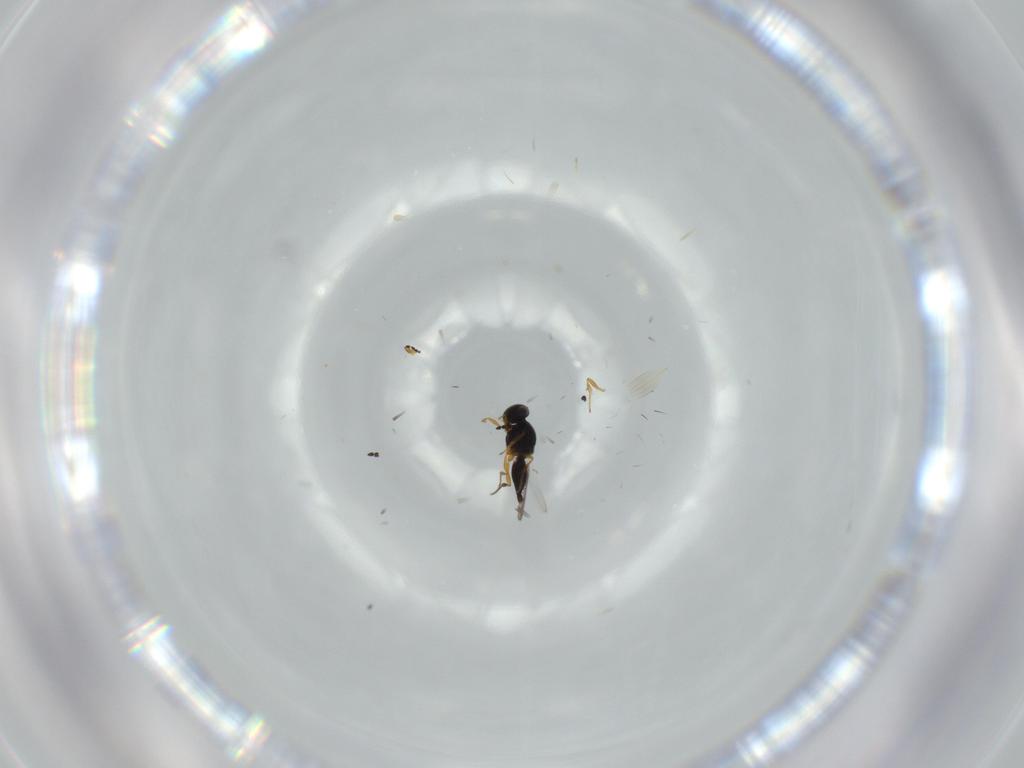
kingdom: Animalia
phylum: Arthropoda
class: Insecta
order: Hymenoptera
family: Platygastridae
